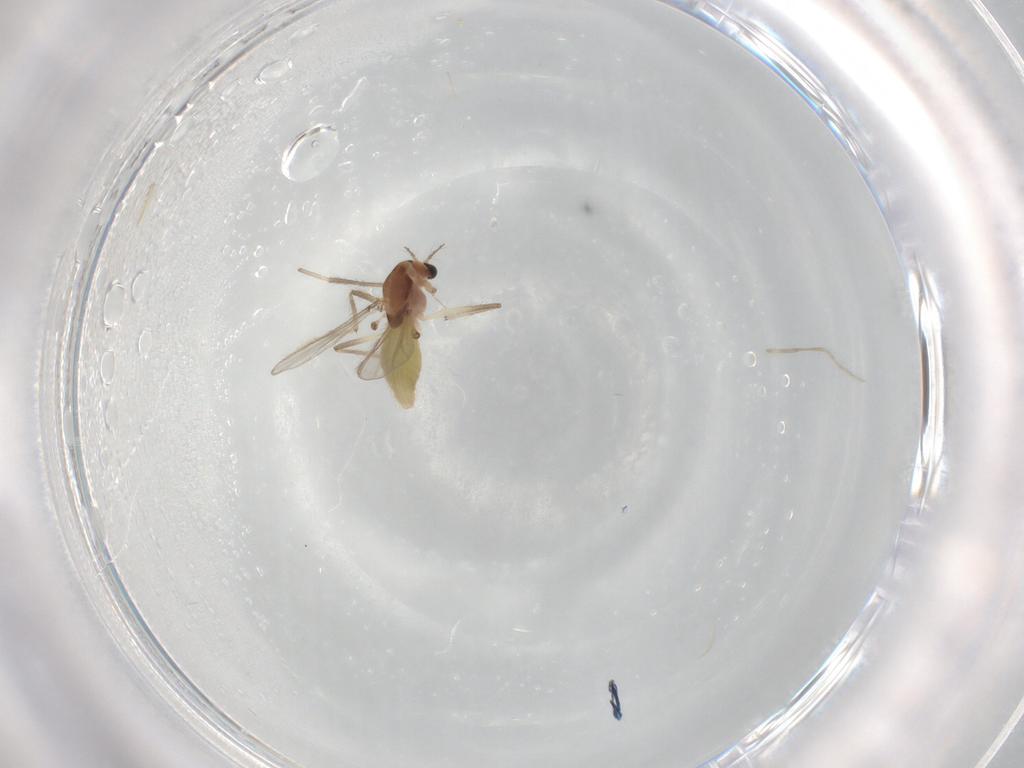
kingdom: Animalia
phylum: Arthropoda
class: Insecta
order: Diptera
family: Chironomidae
